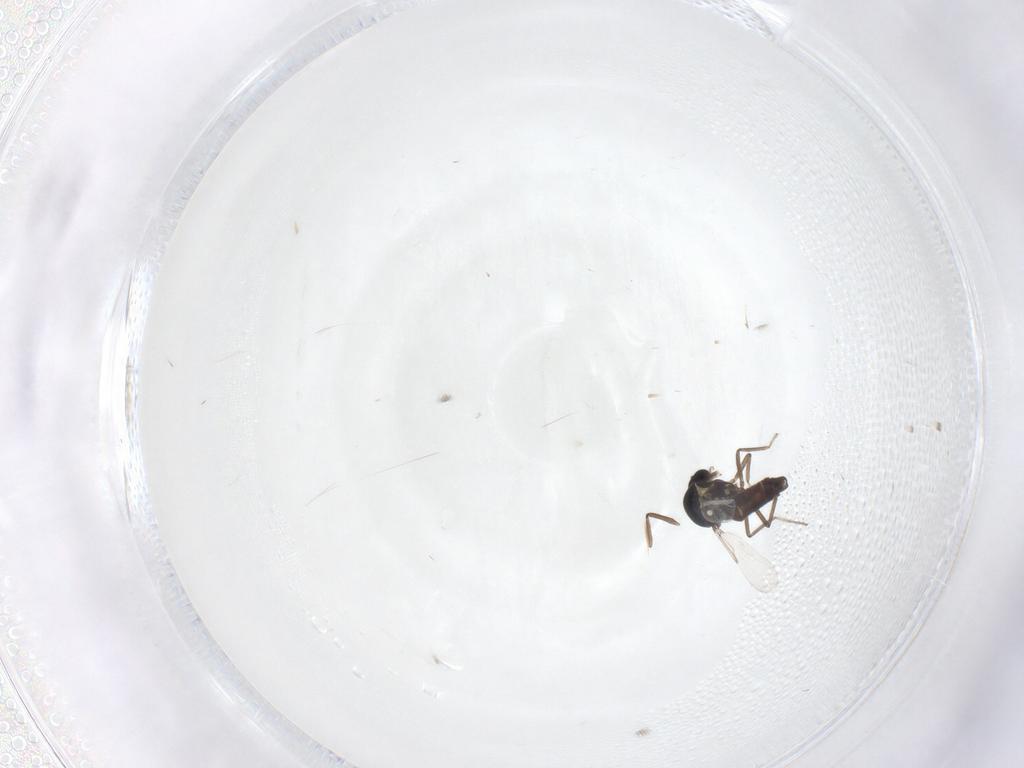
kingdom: Animalia
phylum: Arthropoda
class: Insecta
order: Diptera
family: Ceratopogonidae
